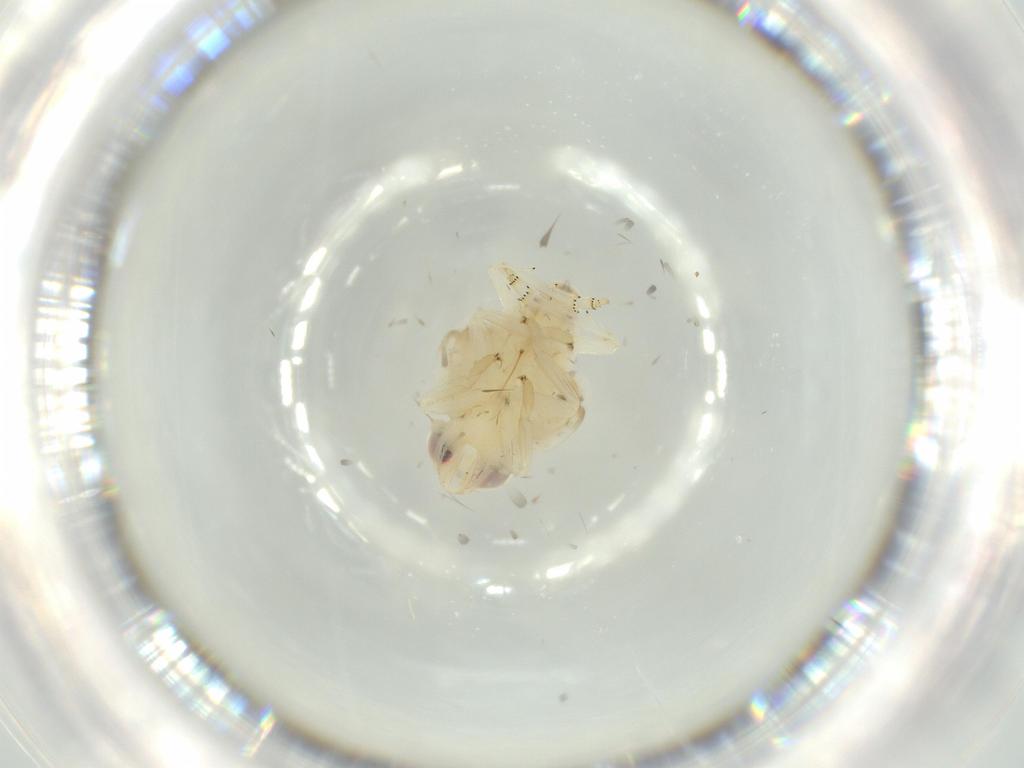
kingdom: Animalia
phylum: Arthropoda
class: Insecta
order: Hemiptera
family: Nogodinidae
